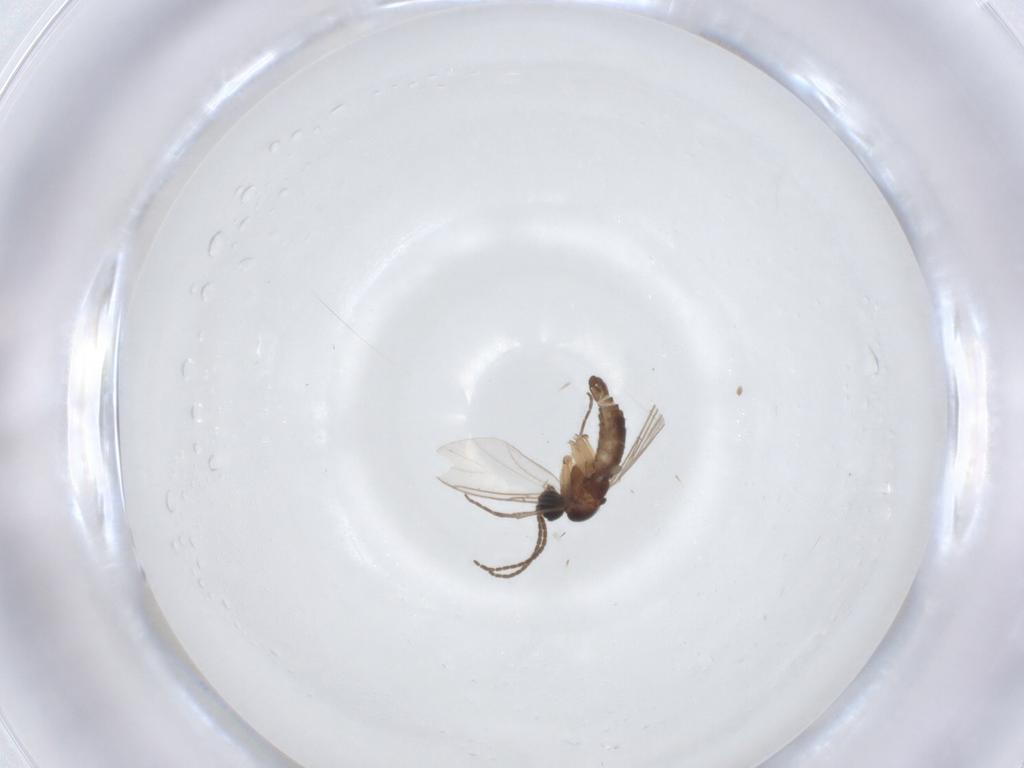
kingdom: Animalia
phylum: Arthropoda
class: Insecta
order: Diptera
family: Sciaridae
